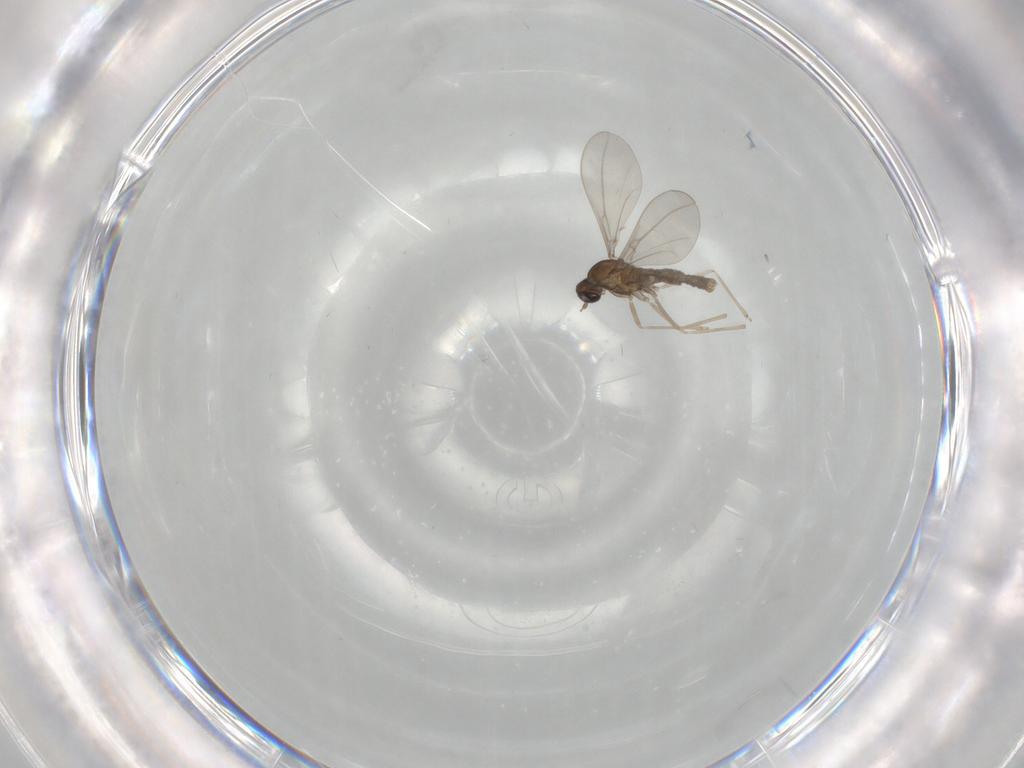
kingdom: Animalia
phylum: Arthropoda
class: Insecta
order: Diptera
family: Cecidomyiidae
